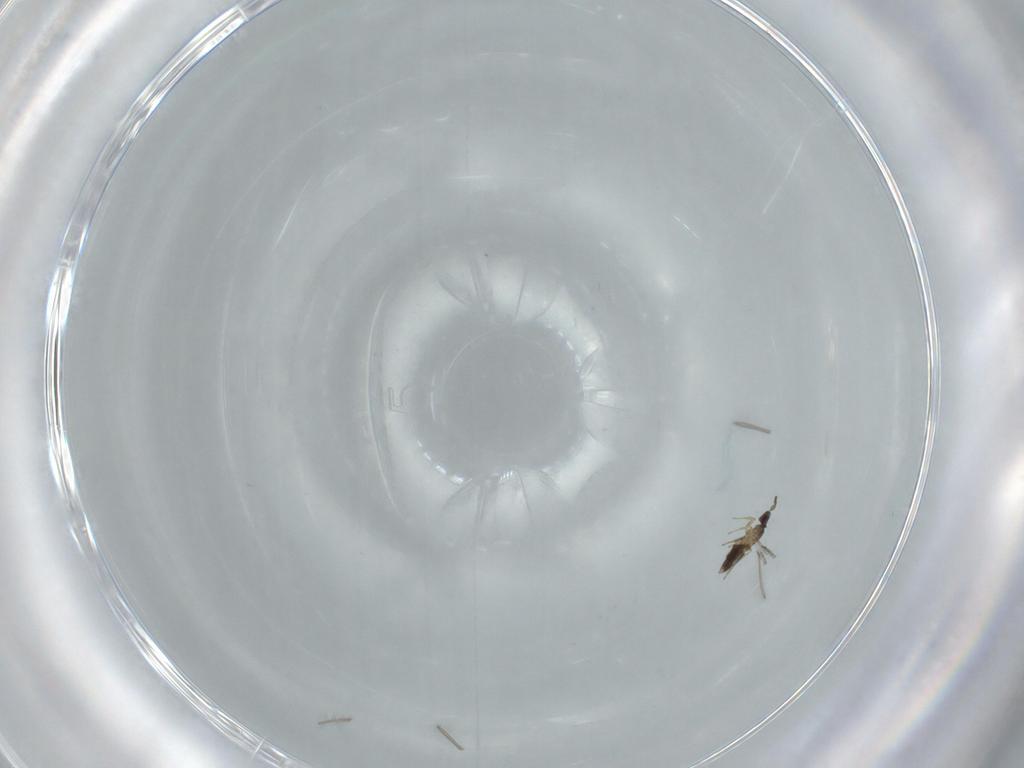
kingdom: Animalia
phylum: Arthropoda
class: Insecta
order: Hymenoptera
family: Mymaridae
